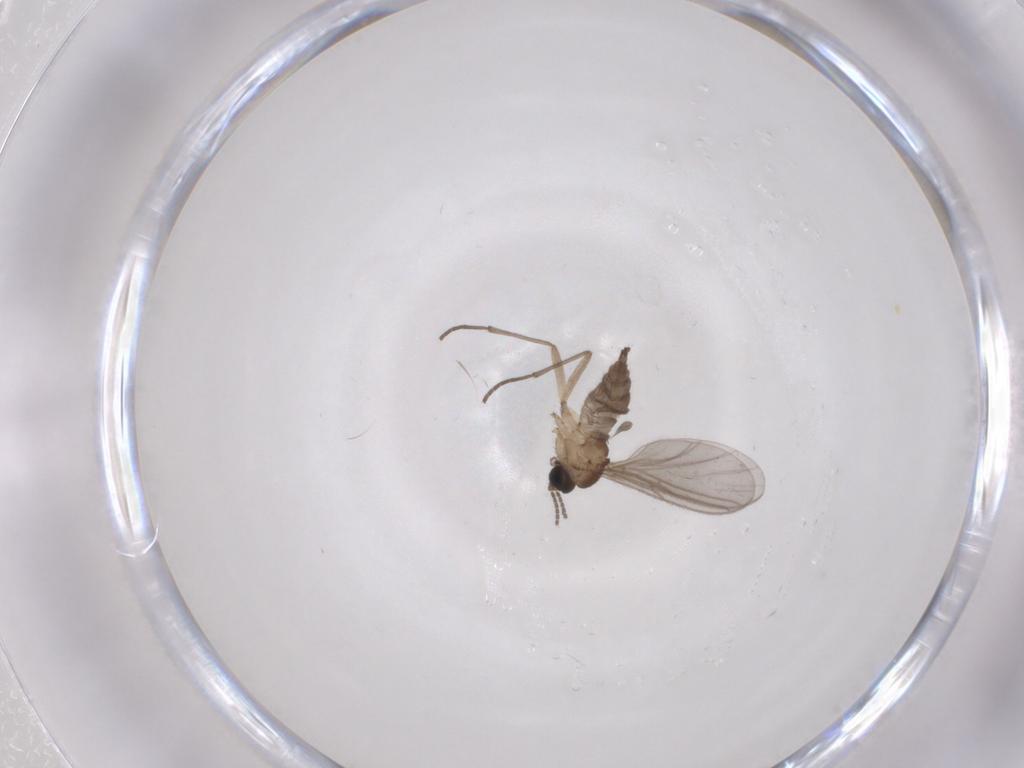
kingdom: Animalia
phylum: Arthropoda
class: Insecta
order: Diptera
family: Sciaridae
